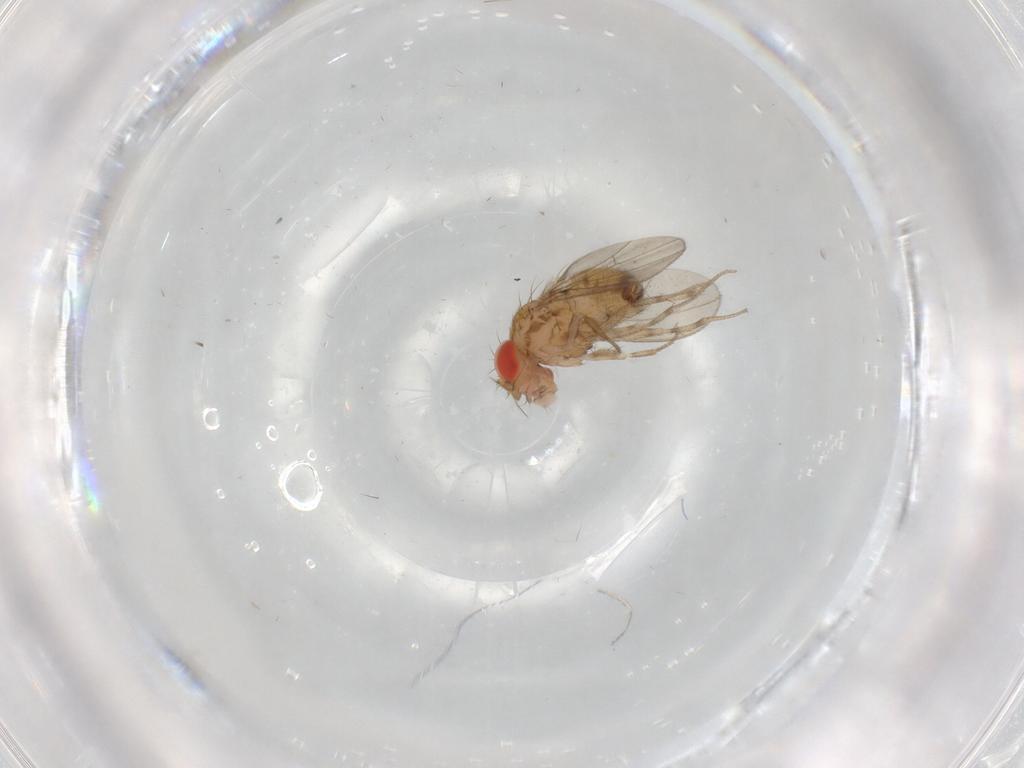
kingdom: Animalia
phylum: Arthropoda
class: Insecta
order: Diptera
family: Drosophilidae
